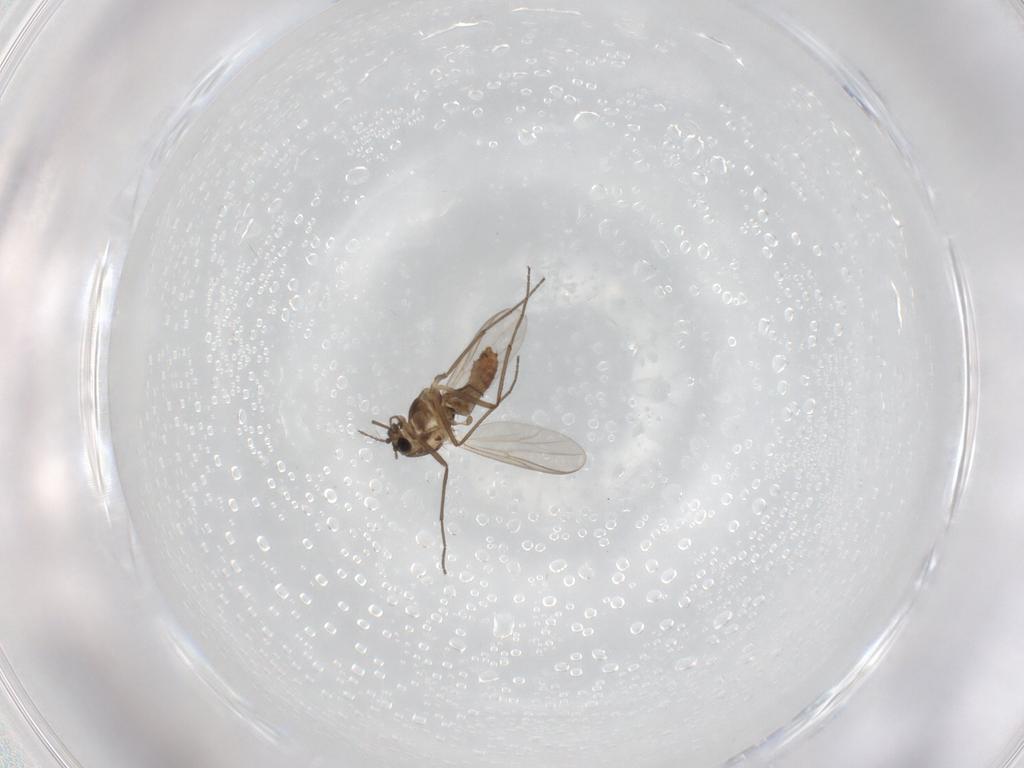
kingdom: Animalia
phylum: Arthropoda
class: Insecta
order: Diptera
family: Chironomidae
